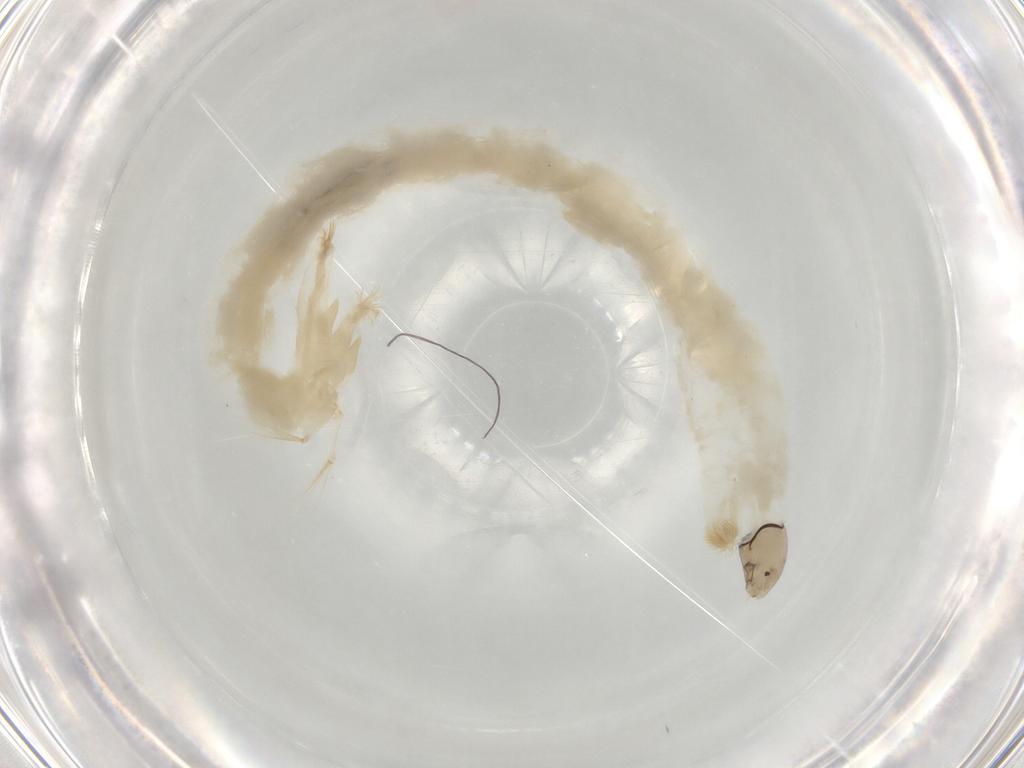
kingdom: Animalia
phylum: Arthropoda
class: Insecta
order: Diptera
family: Chironomidae
